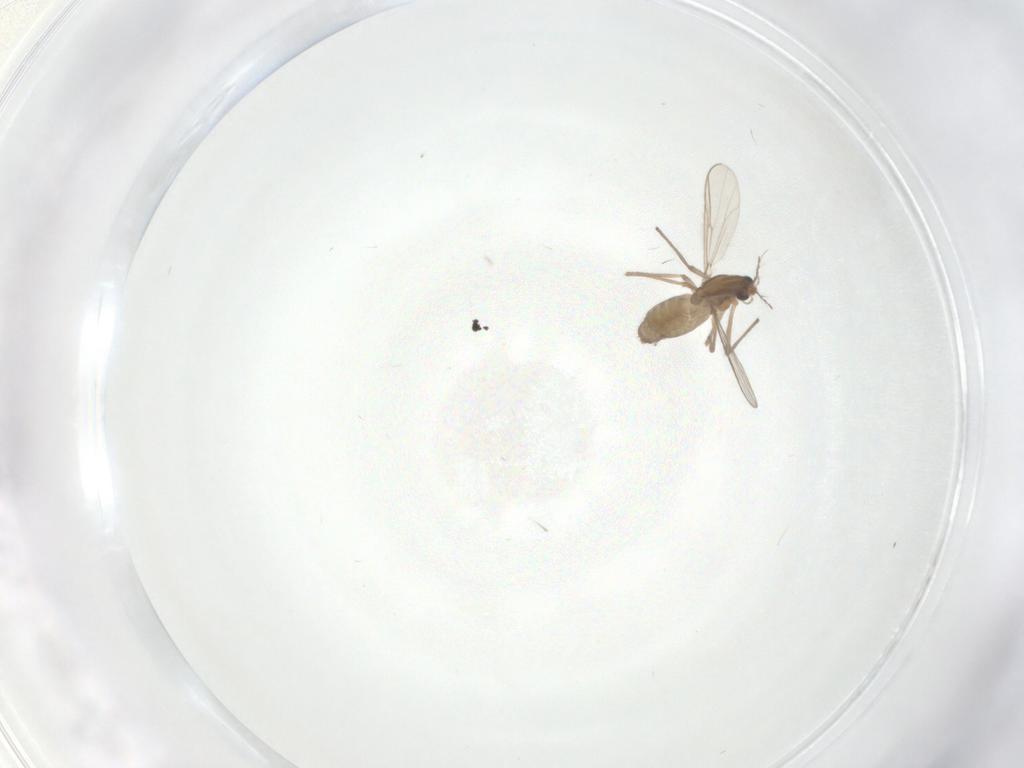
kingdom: Animalia
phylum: Arthropoda
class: Insecta
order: Diptera
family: Chironomidae
